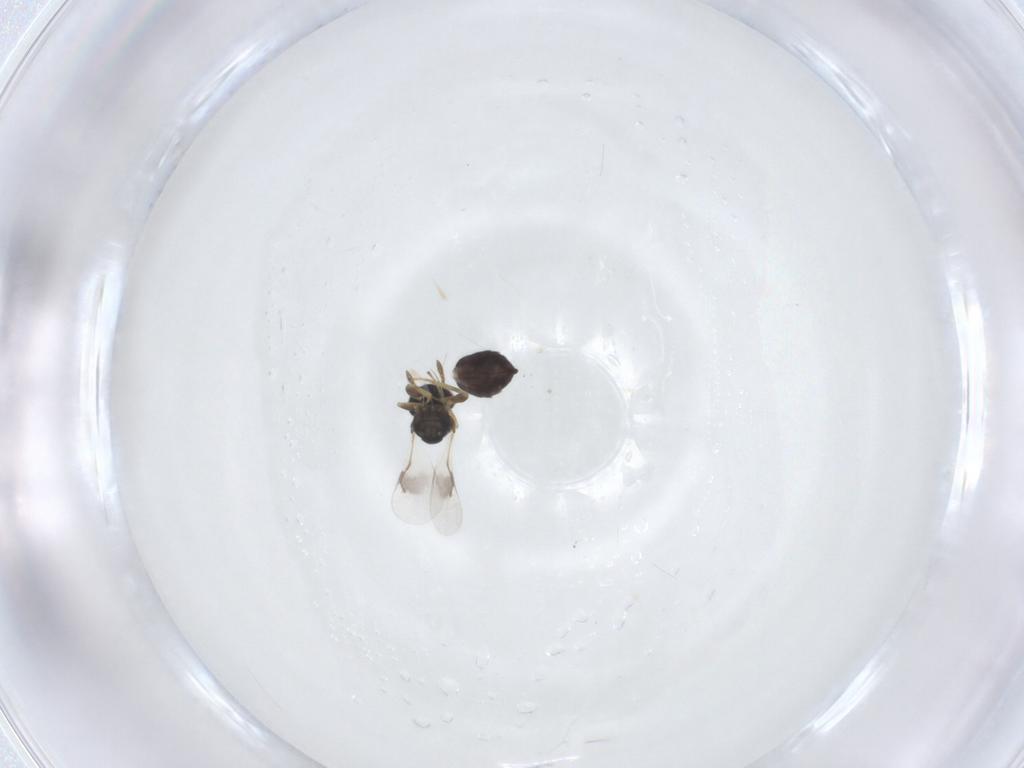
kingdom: Animalia
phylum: Arthropoda
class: Insecta
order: Hymenoptera
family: Pteromalidae
